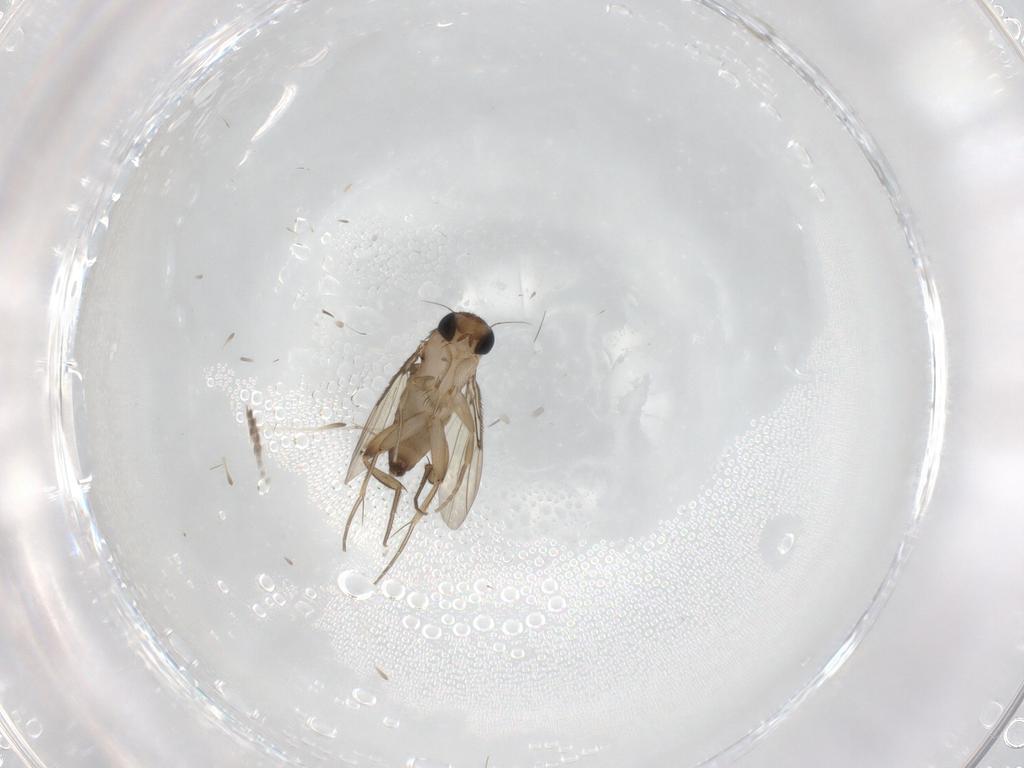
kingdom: Animalia
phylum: Arthropoda
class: Insecta
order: Diptera
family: Phoridae
